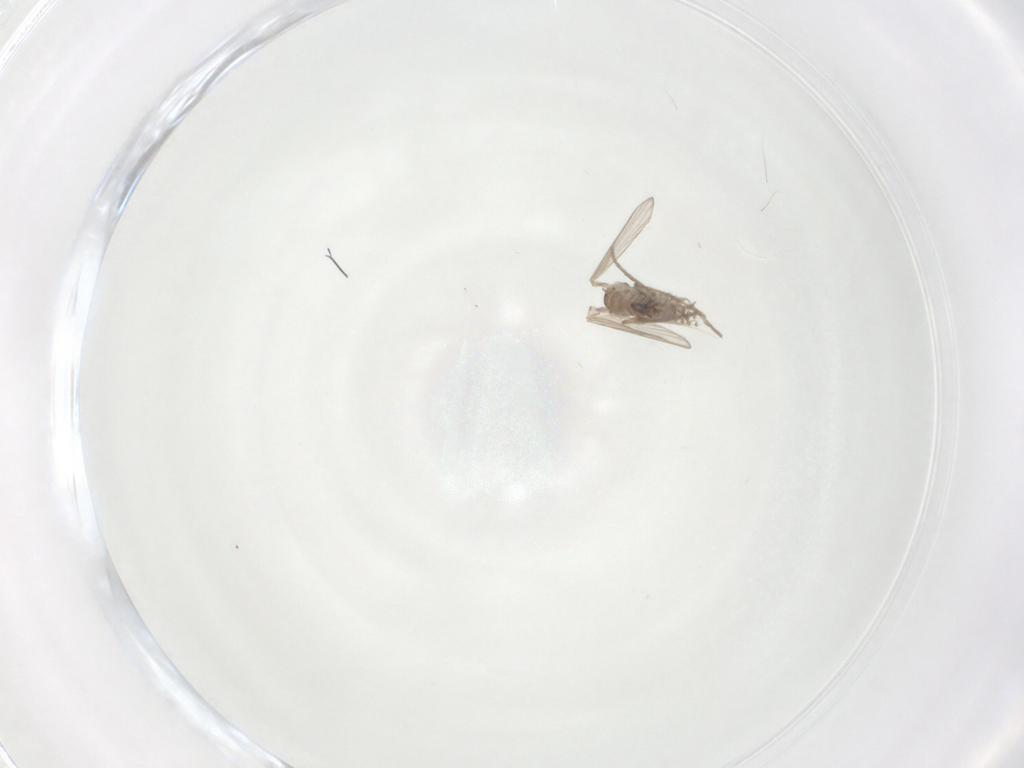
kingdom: Animalia
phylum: Arthropoda
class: Insecta
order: Diptera
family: Psychodidae
